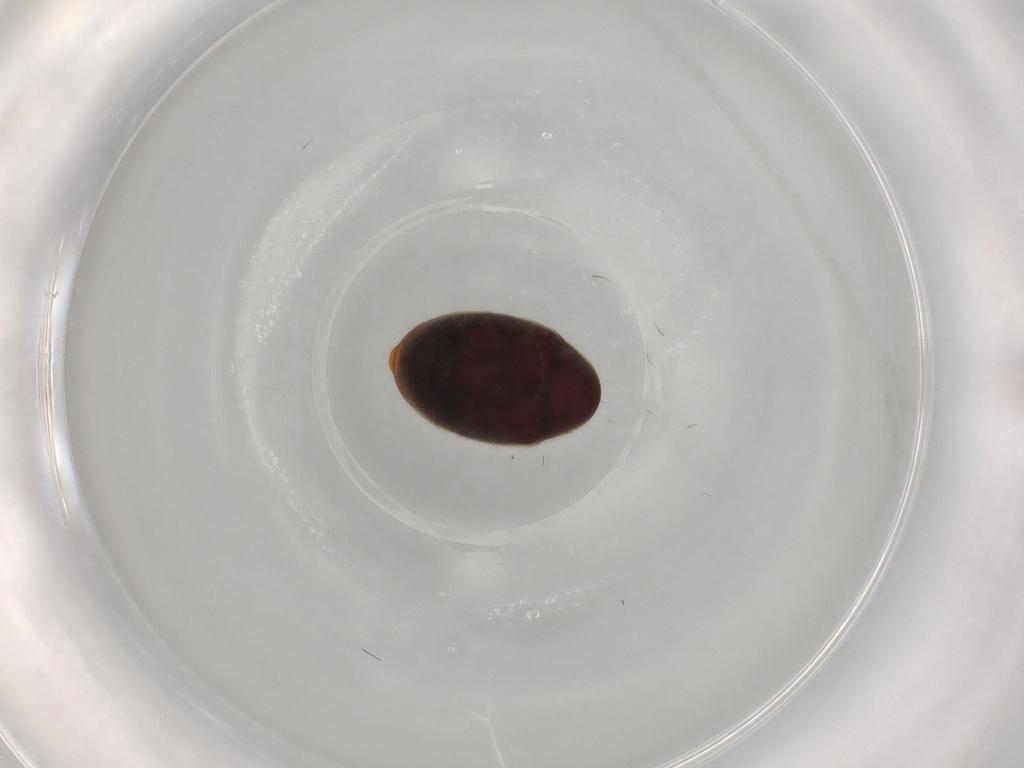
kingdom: Animalia
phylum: Arthropoda
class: Insecta
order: Coleoptera
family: Ptinidae
